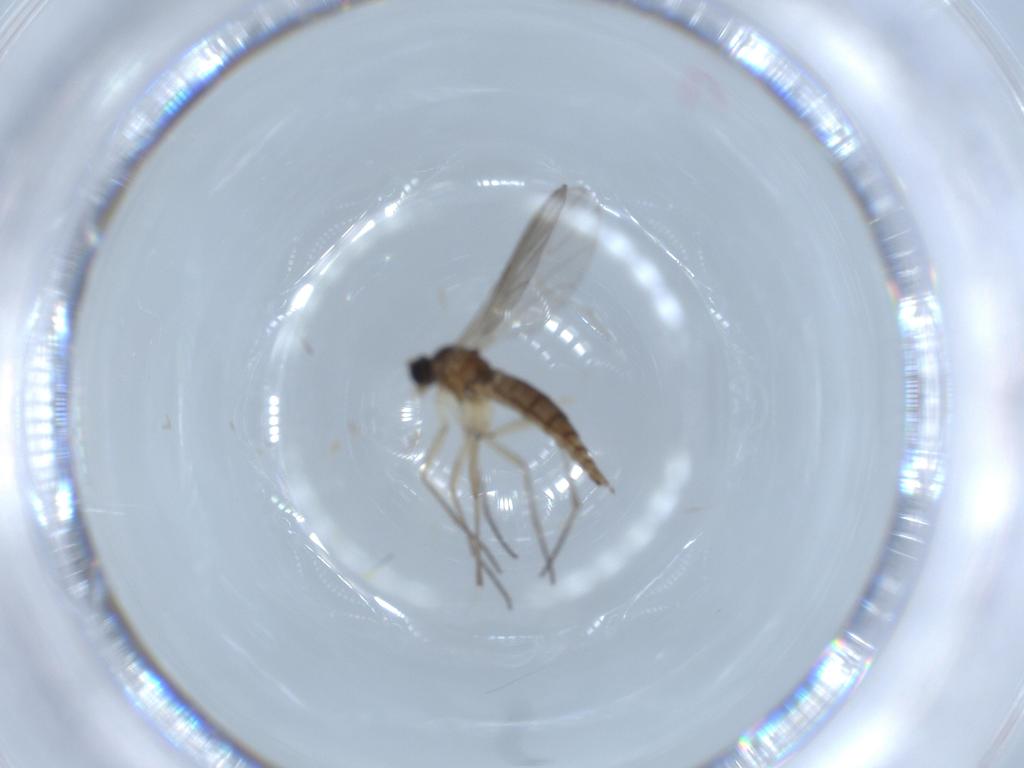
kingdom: Animalia
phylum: Arthropoda
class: Insecta
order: Diptera
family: Sciaridae
